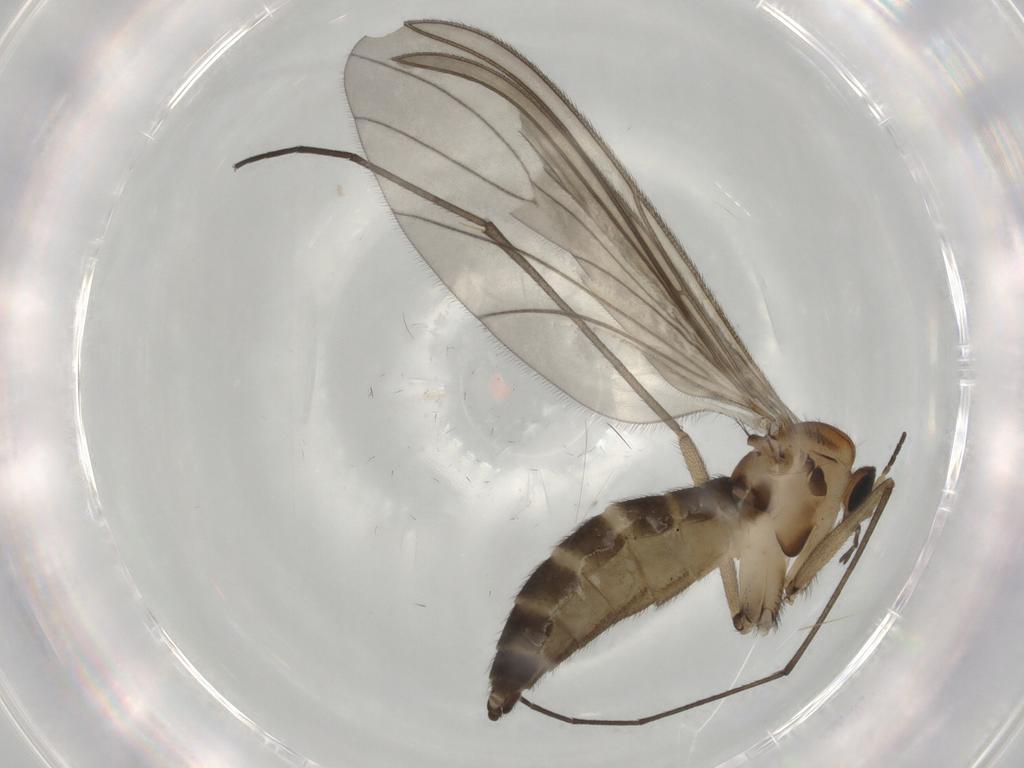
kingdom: Animalia
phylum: Arthropoda
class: Insecta
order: Diptera
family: Sciaridae
